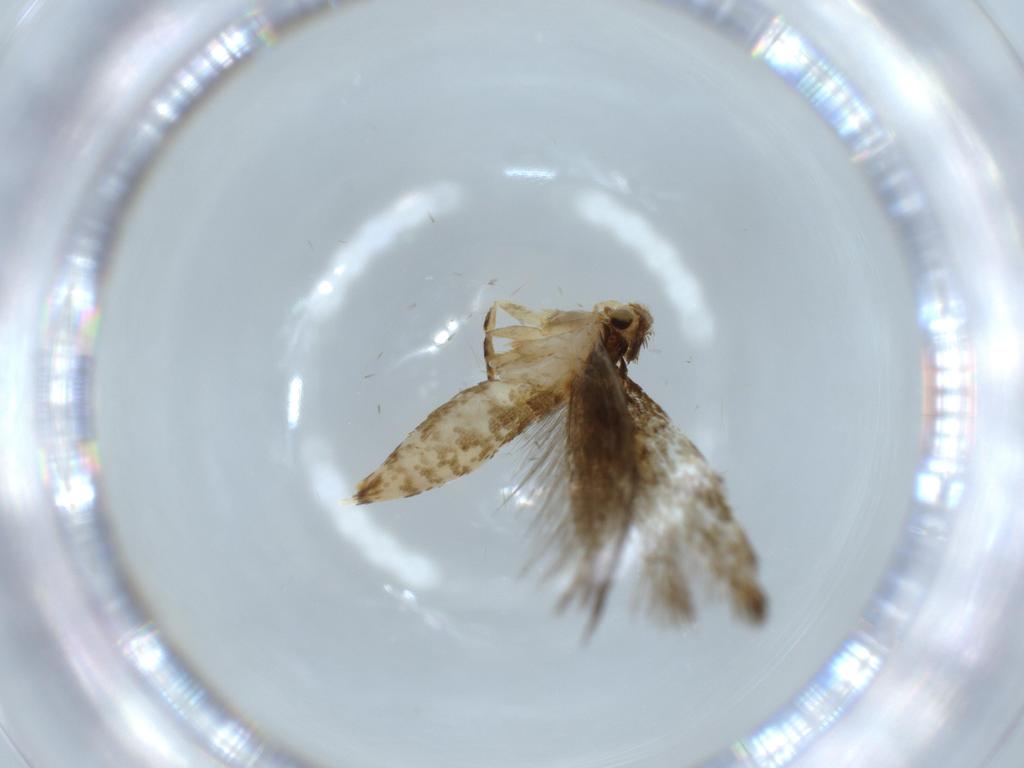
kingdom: Animalia
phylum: Arthropoda
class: Insecta
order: Lepidoptera
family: Tineidae
